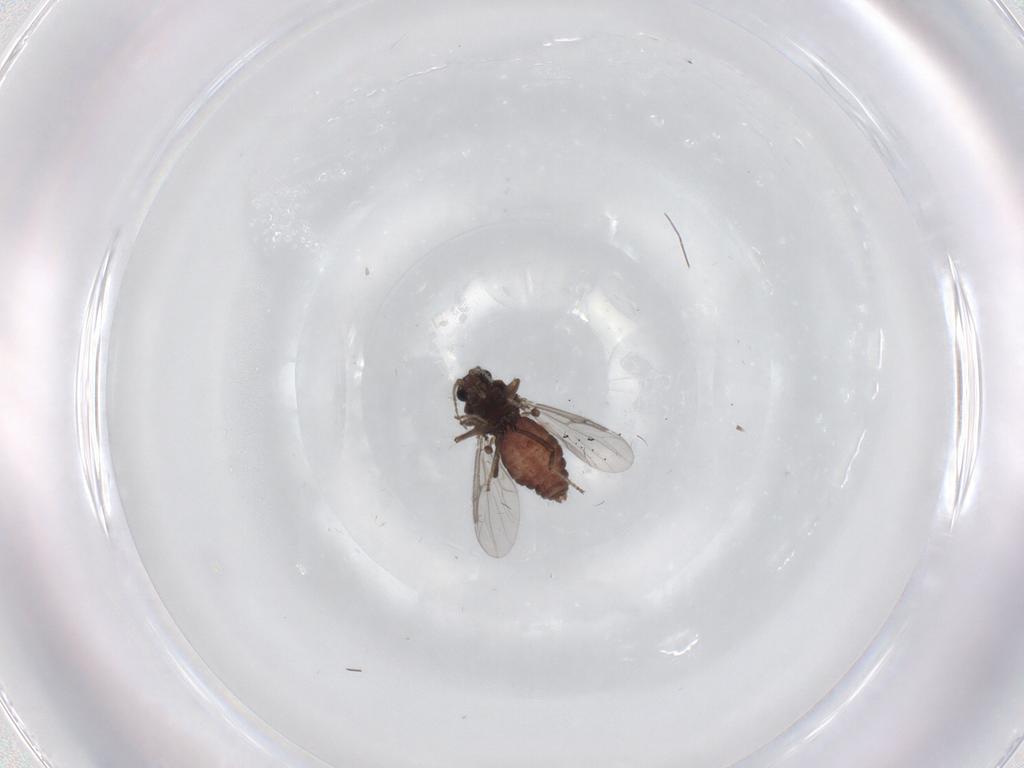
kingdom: Animalia
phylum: Arthropoda
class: Insecta
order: Diptera
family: Ceratopogonidae
